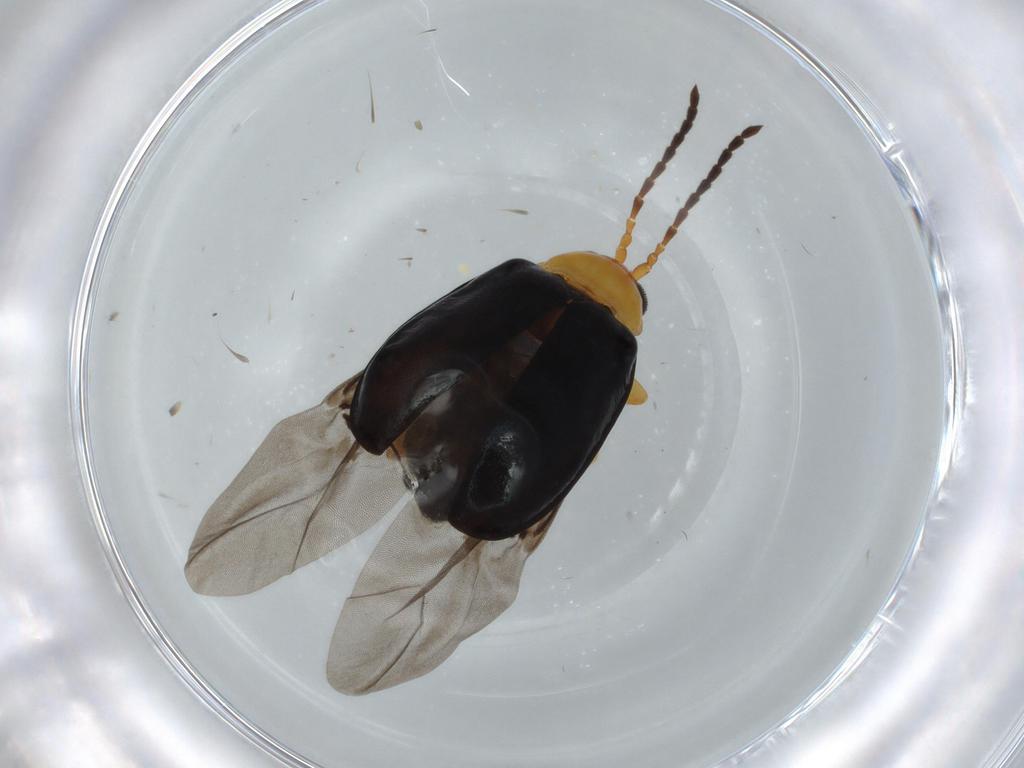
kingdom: Animalia
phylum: Arthropoda
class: Insecta
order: Coleoptera
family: Chrysomelidae
